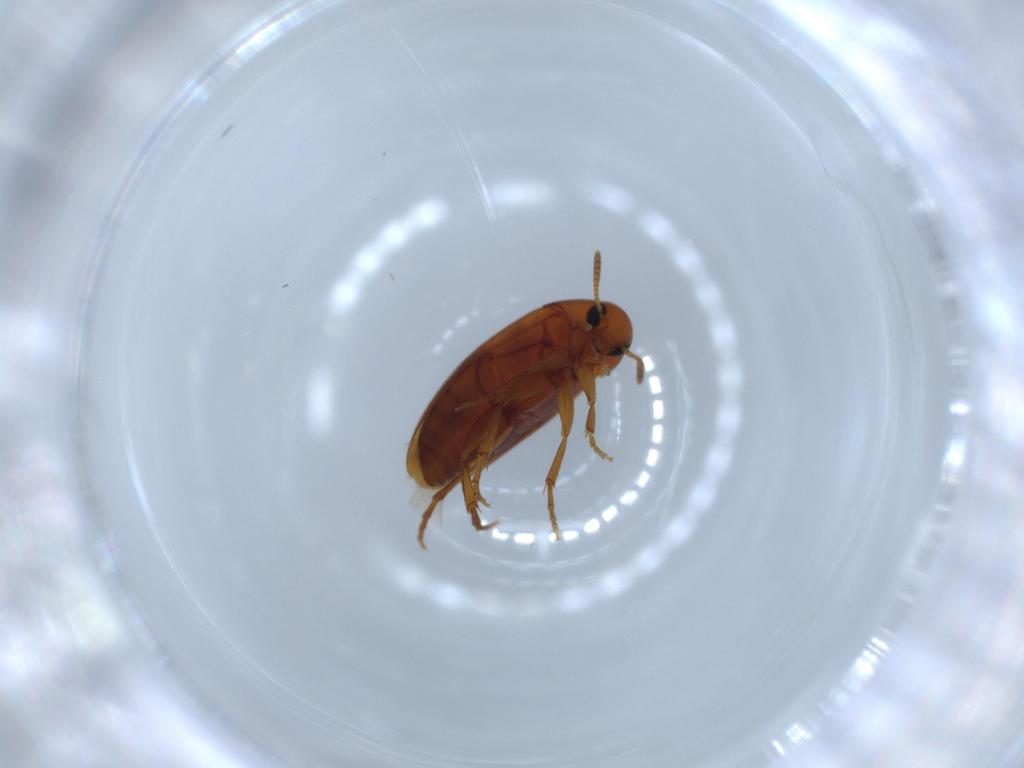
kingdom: Animalia
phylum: Arthropoda
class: Insecta
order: Coleoptera
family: Scraptiidae
